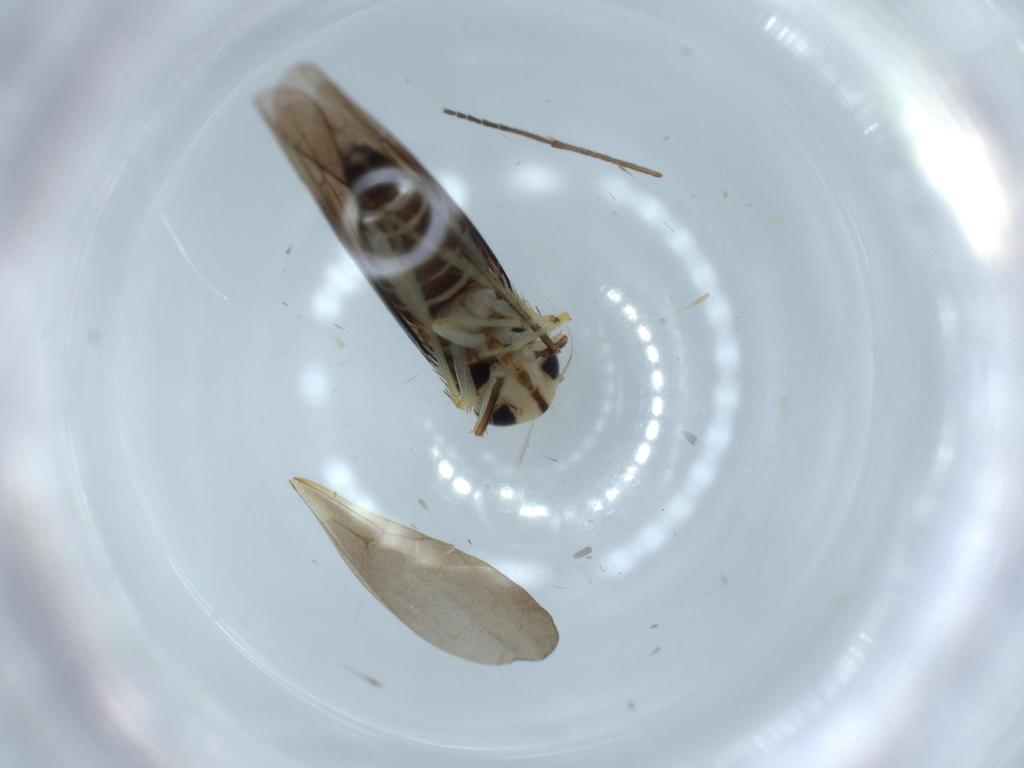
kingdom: Animalia
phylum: Arthropoda
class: Insecta
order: Hemiptera
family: Cicadellidae
